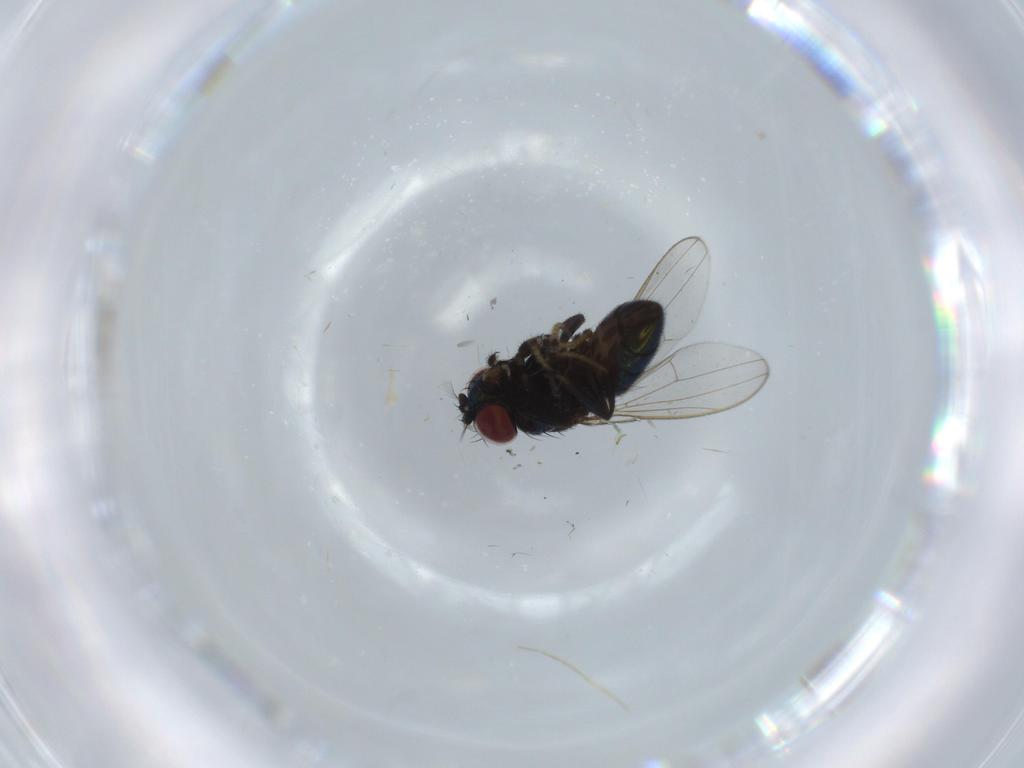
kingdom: Animalia
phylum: Arthropoda
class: Insecta
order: Diptera
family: Ephydridae
